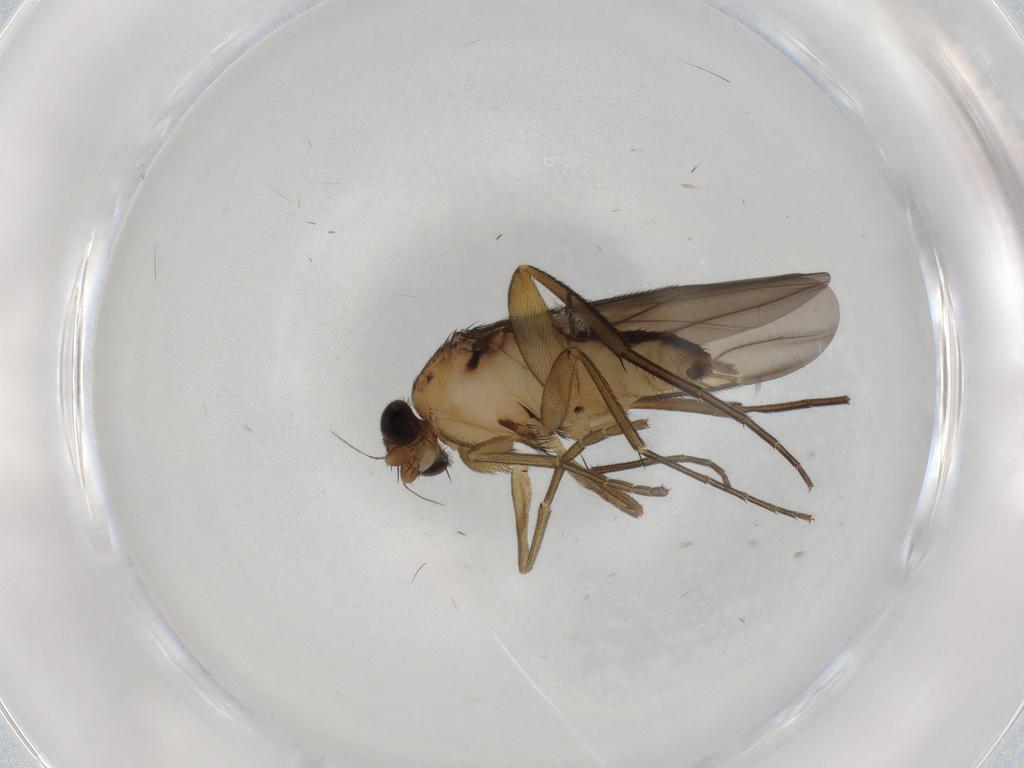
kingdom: Animalia
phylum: Arthropoda
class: Insecta
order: Diptera
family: Phoridae
